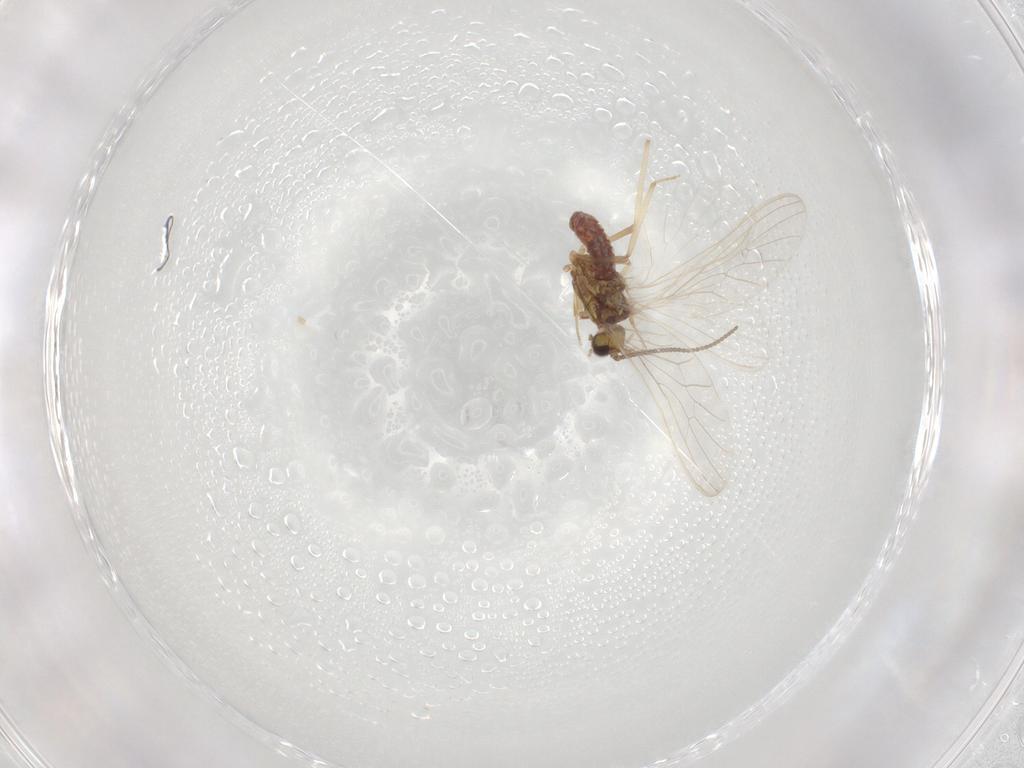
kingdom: Animalia
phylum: Arthropoda
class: Insecta
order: Neuroptera
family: Coniopterygidae
